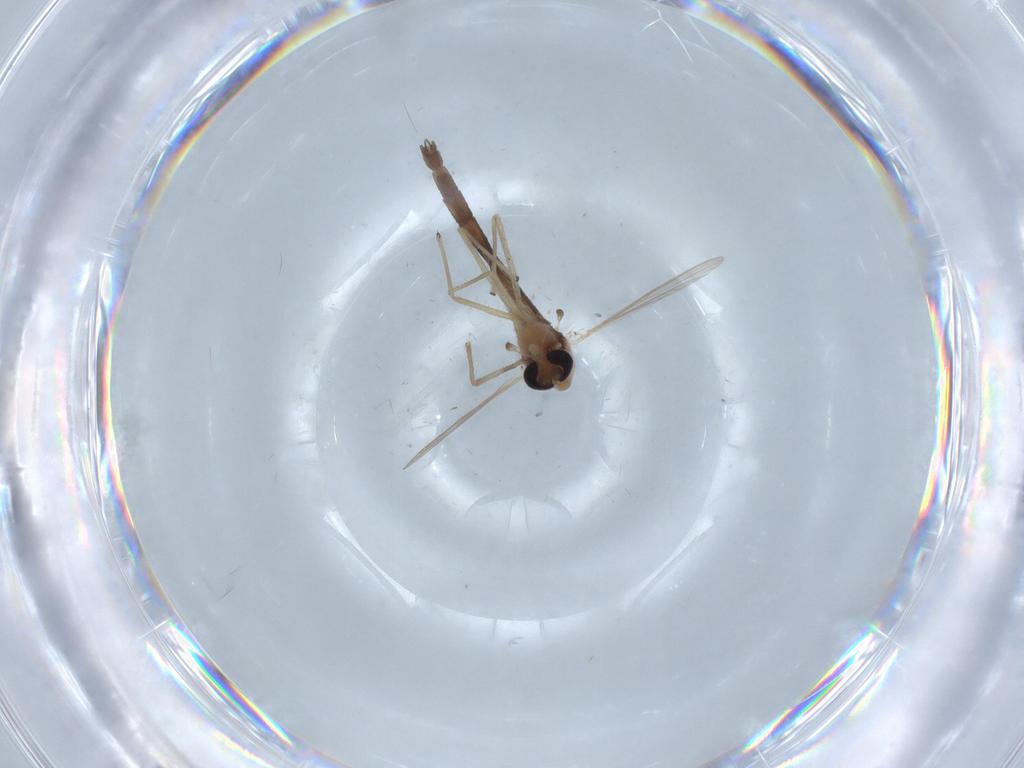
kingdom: Animalia
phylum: Arthropoda
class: Insecta
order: Diptera
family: Chironomidae
